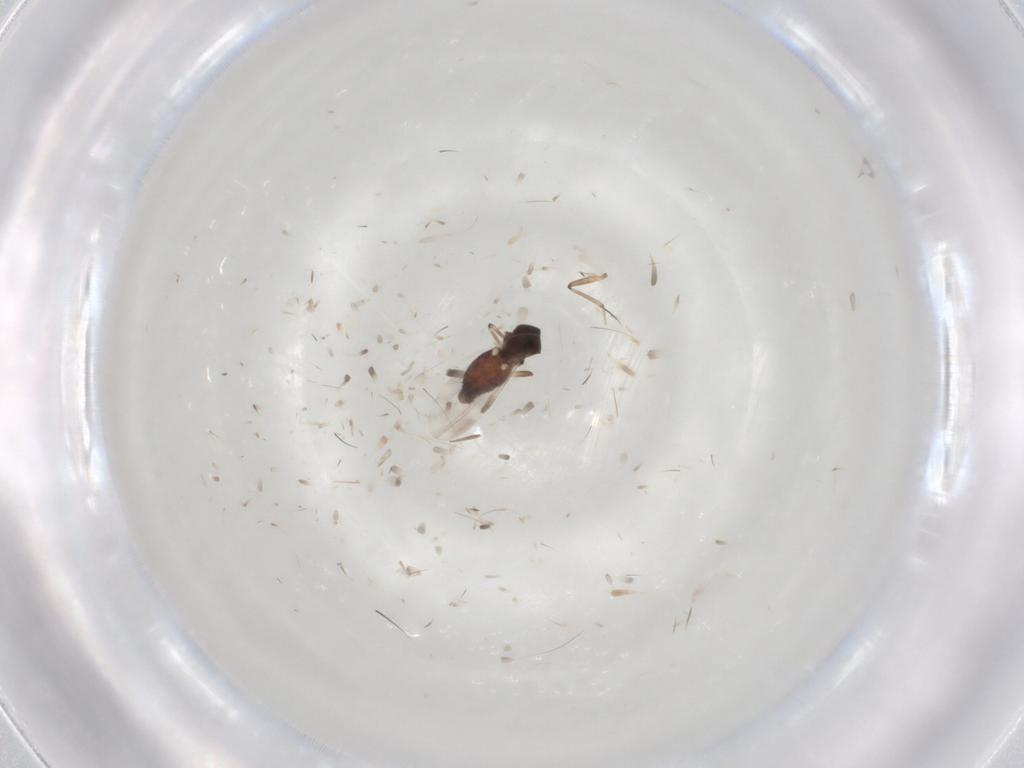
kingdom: Animalia
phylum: Arthropoda
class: Insecta
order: Diptera
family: Ceratopogonidae
